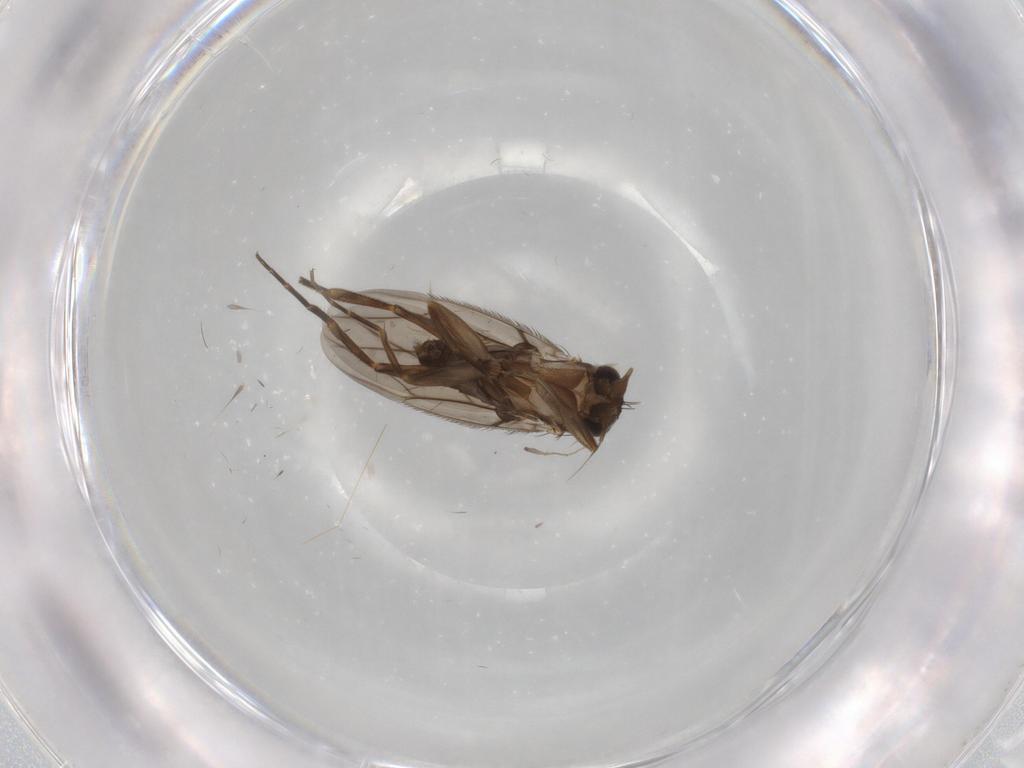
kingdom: Animalia
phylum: Arthropoda
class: Insecta
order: Diptera
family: Phoridae
